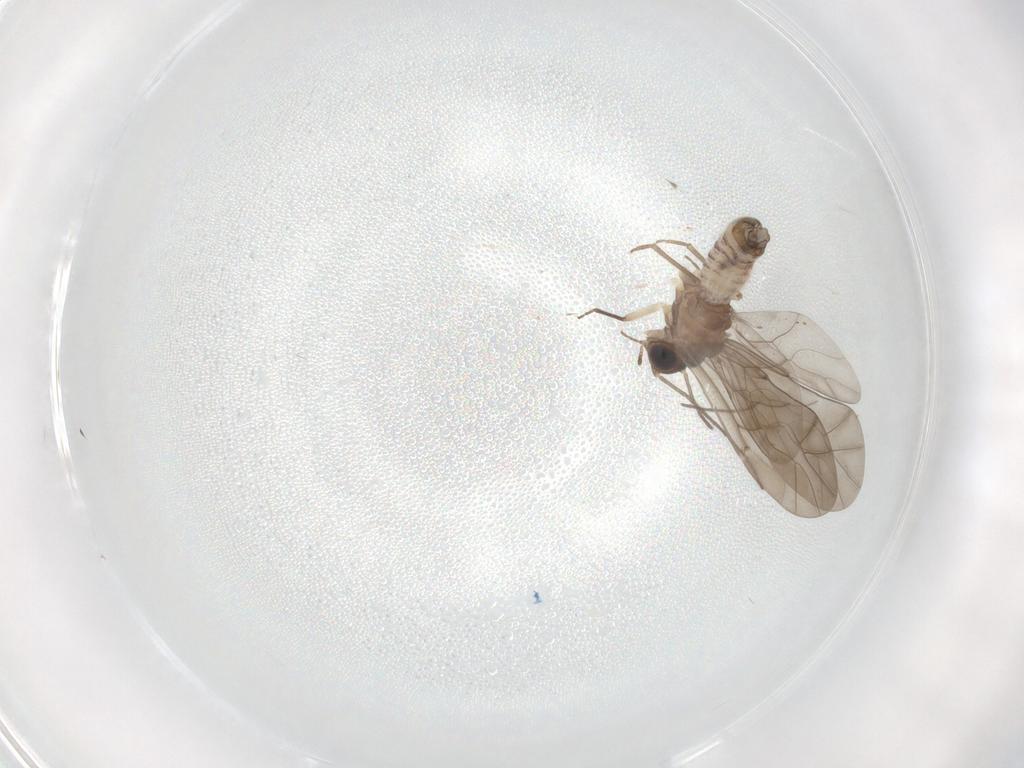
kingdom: Animalia
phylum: Arthropoda
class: Insecta
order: Psocodea
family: Peripsocidae
